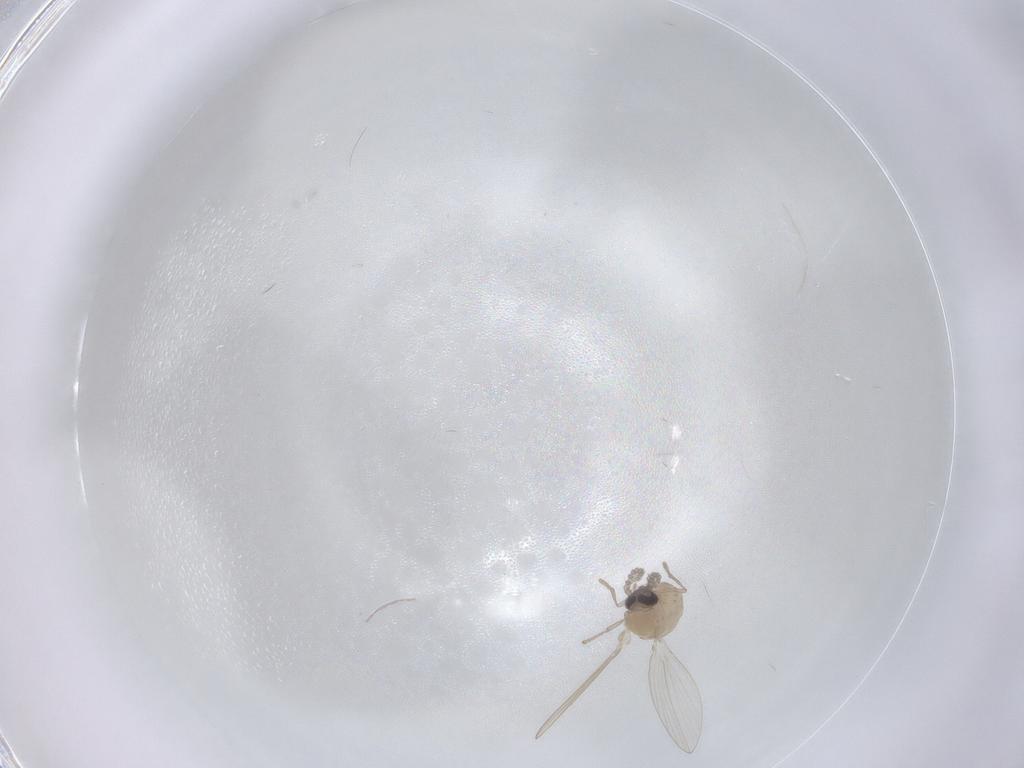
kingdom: Animalia
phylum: Arthropoda
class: Insecta
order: Diptera
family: Psychodidae
